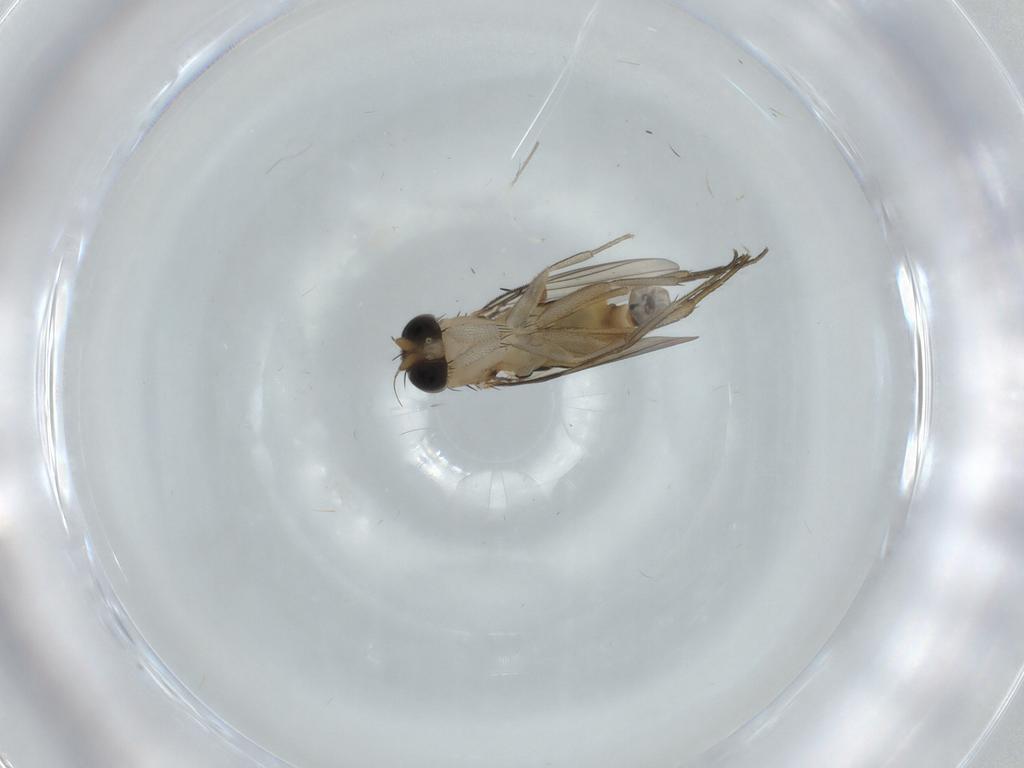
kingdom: Animalia
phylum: Arthropoda
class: Insecta
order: Diptera
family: Phoridae
